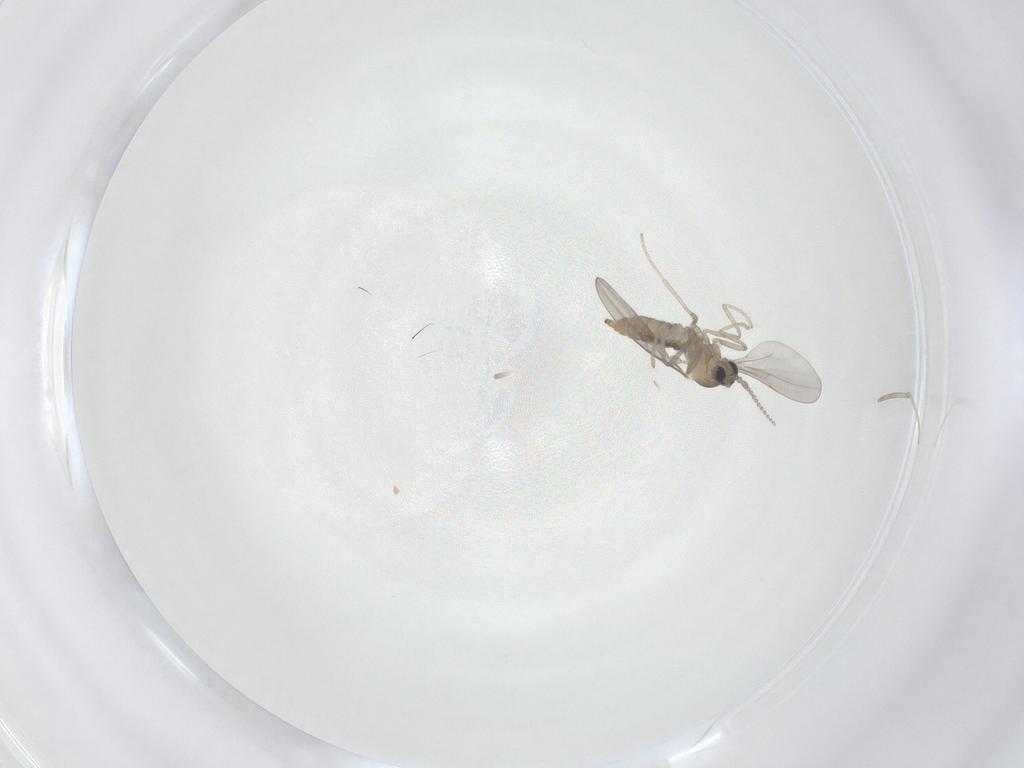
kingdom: Animalia
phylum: Arthropoda
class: Insecta
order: Diptera
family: Cecidomyiidae
